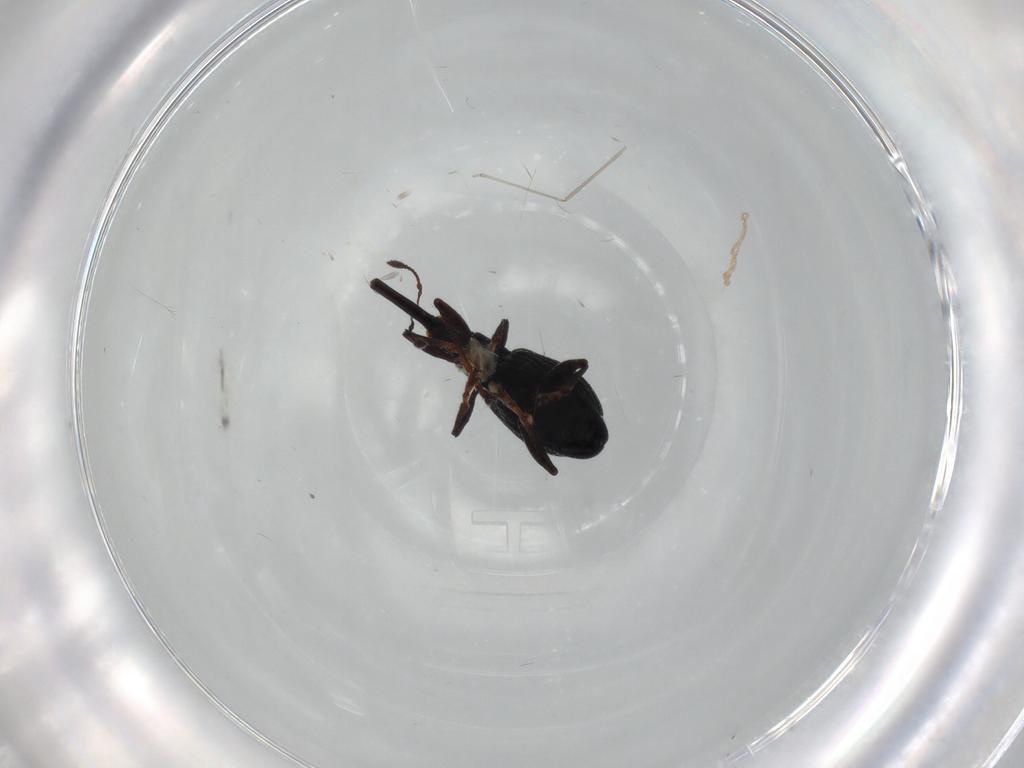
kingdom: Animalia
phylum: Arthropoda
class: Insecta
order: Coleoptera
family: Brentidae
